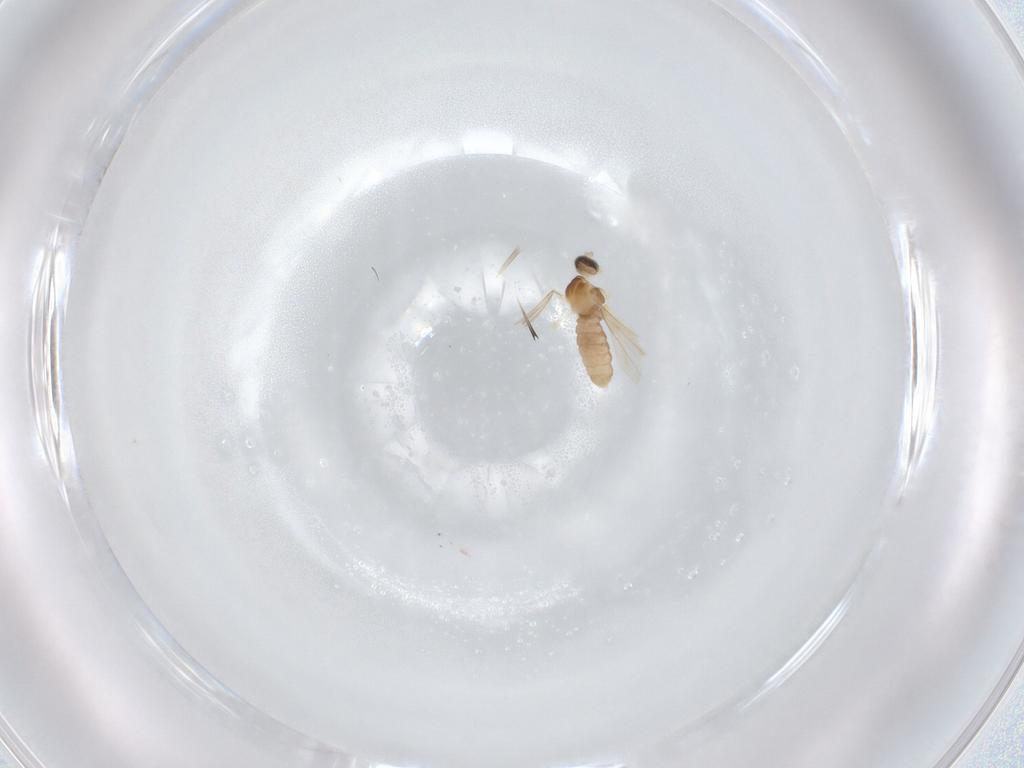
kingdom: Animalia
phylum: Arthropoda
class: Insecta
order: Diptera
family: Cecidomyiidae
